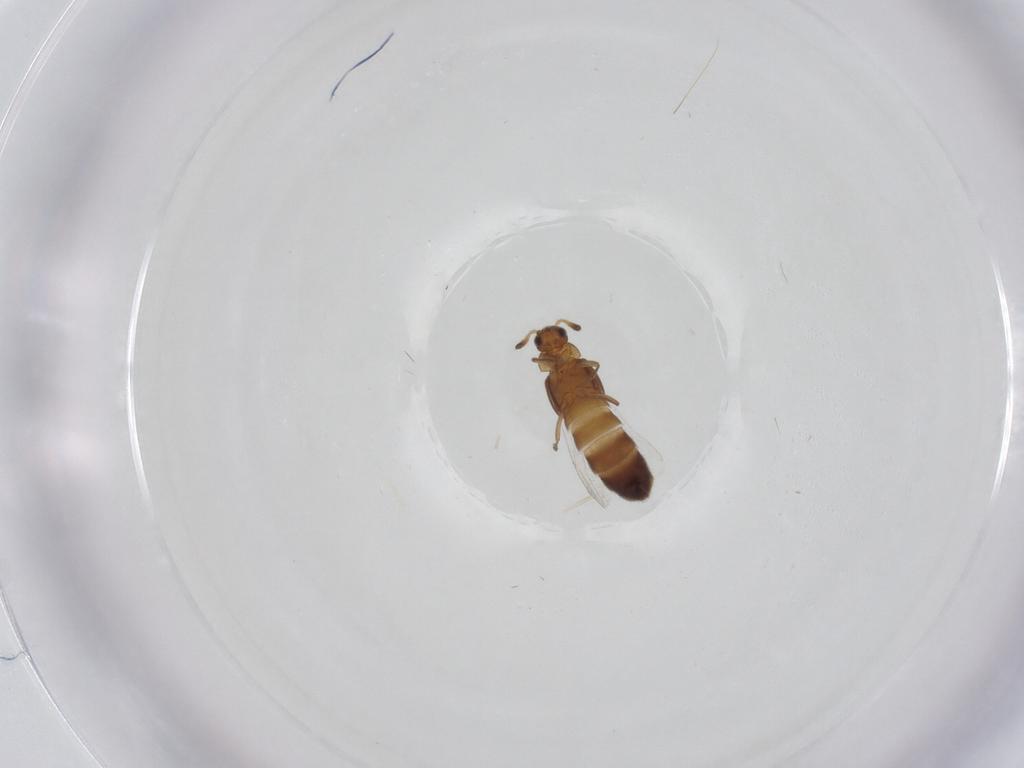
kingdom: Animalia
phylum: Arthropoda
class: Insecta
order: Coleoptera
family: Staphylinidae
